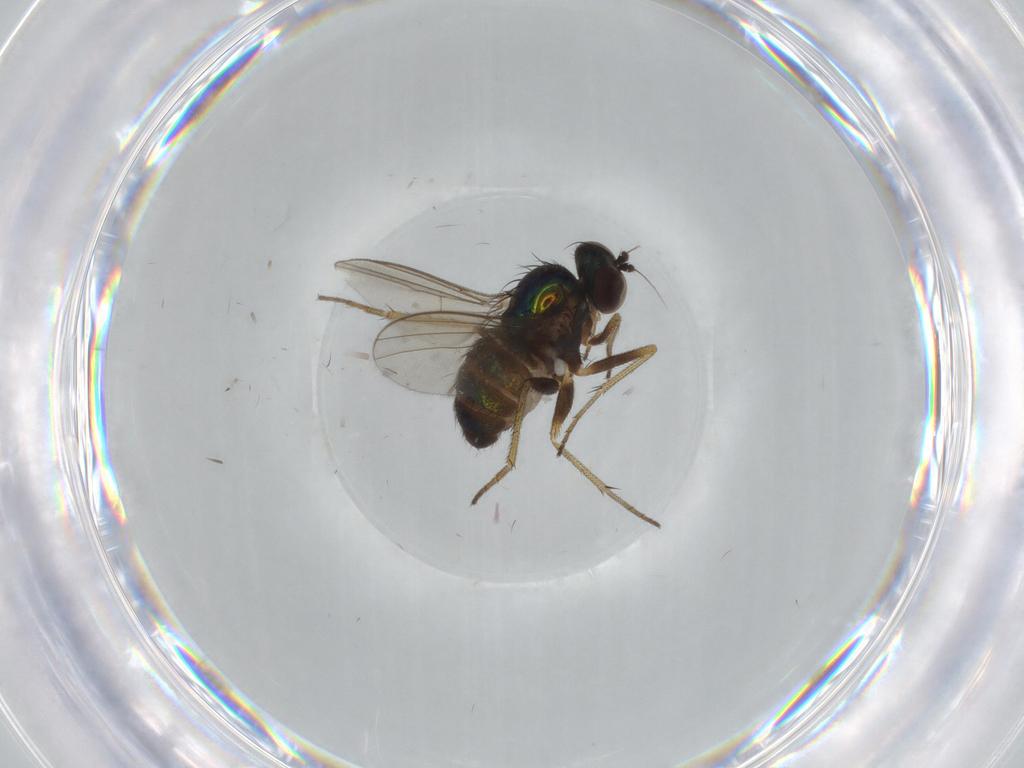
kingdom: Animalia
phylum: Arthropoda
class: Insecta
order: Diptera
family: Dolichopodidae
